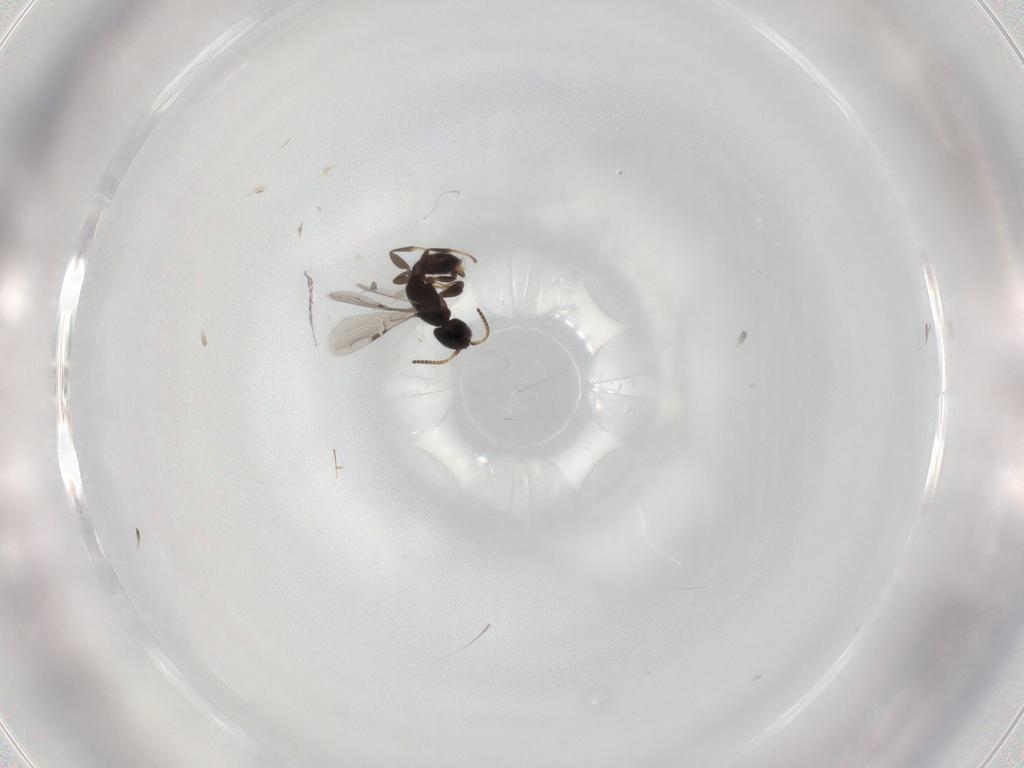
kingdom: Animalia
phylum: Arthropoda
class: Insecta
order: Hymenoptera
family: Bethylidae
